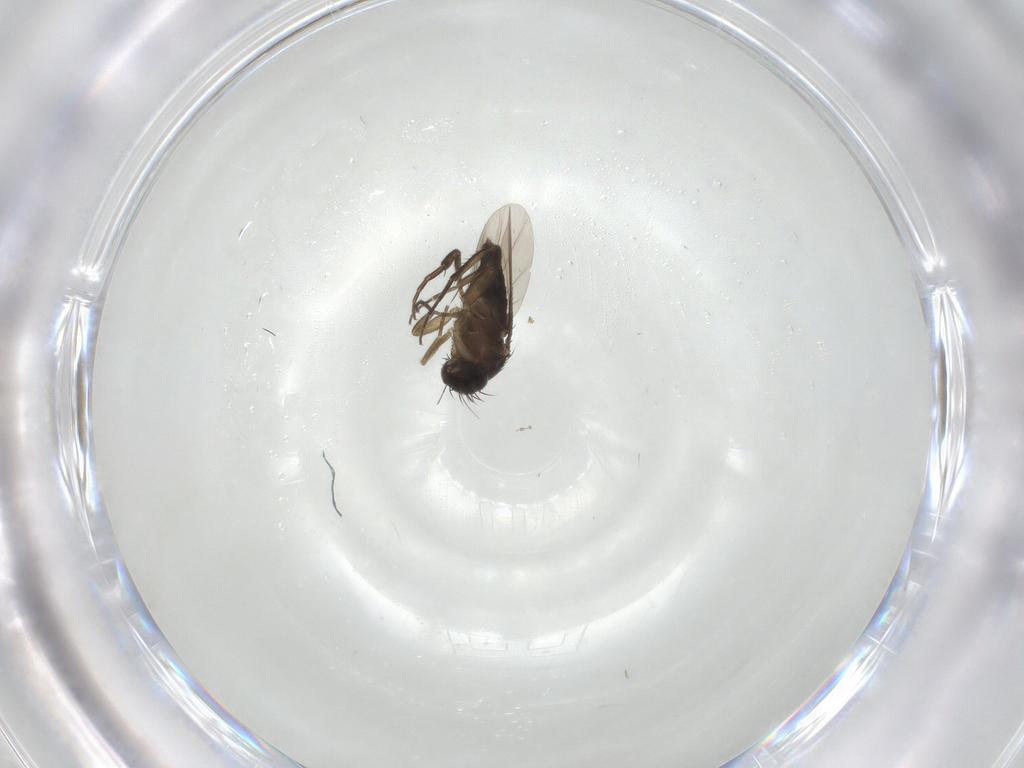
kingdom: Animalia
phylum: Arthropoda
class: Insecta
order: Diptera
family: Phoridae
